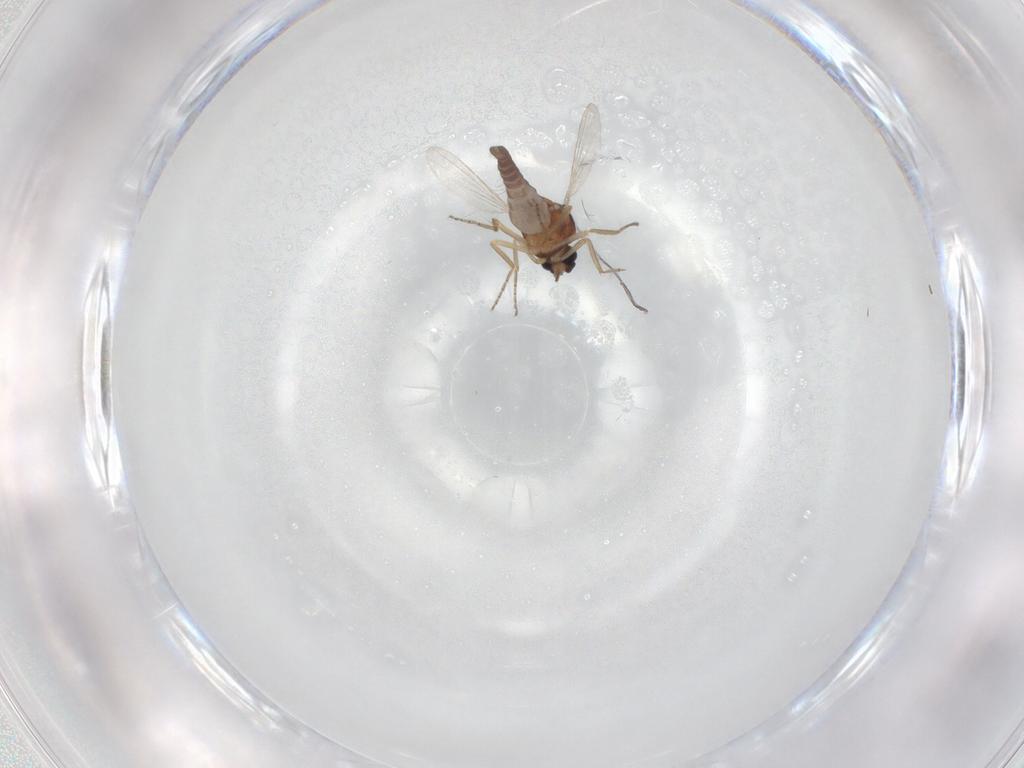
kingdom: Animalia
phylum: Arthropoda
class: Insecta
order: Diptera
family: Ceratopogonidae
